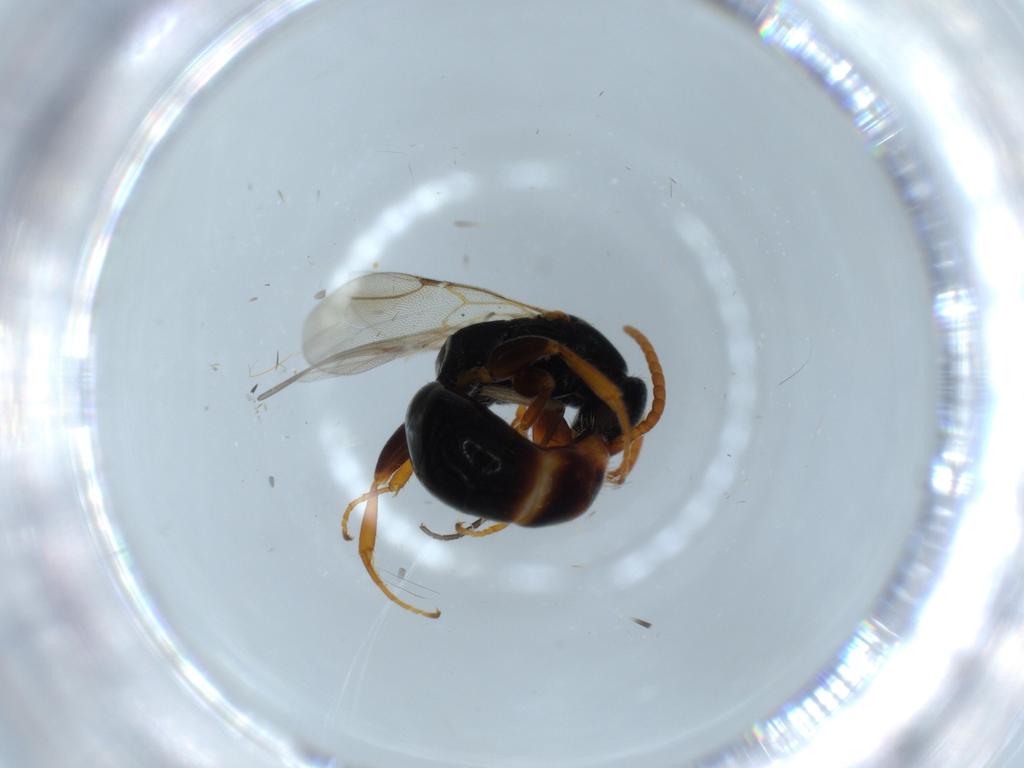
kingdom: Animalia
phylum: Arthropoda
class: Insecta
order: Hymenoptera
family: Bethylidae
